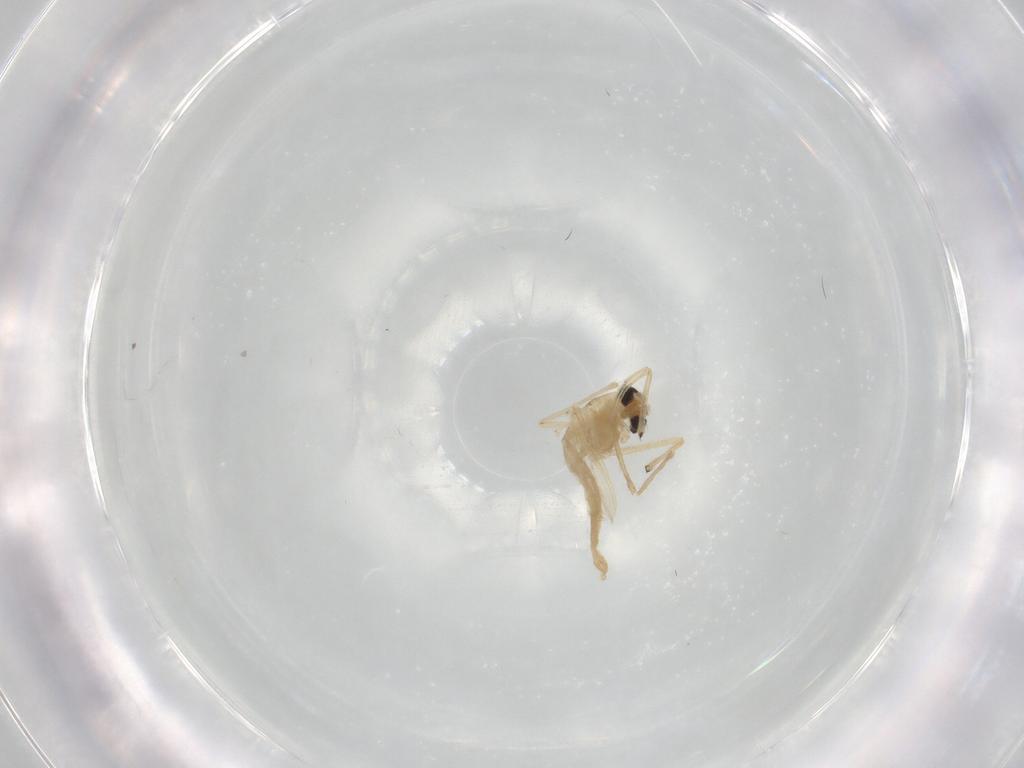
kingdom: Animalia
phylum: Arthropoda
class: Insecta
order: Diptera
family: Chironomidae
